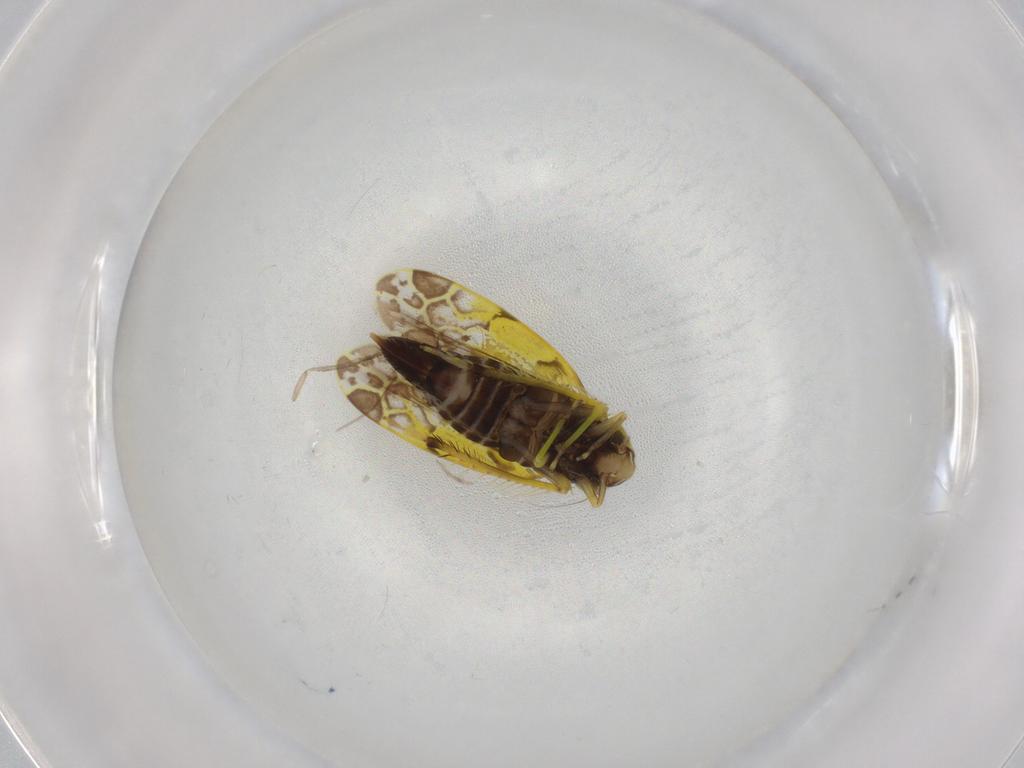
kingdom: Animalia
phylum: Arthropoda
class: Insecta
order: Hemiptera
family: Cicadellidae
